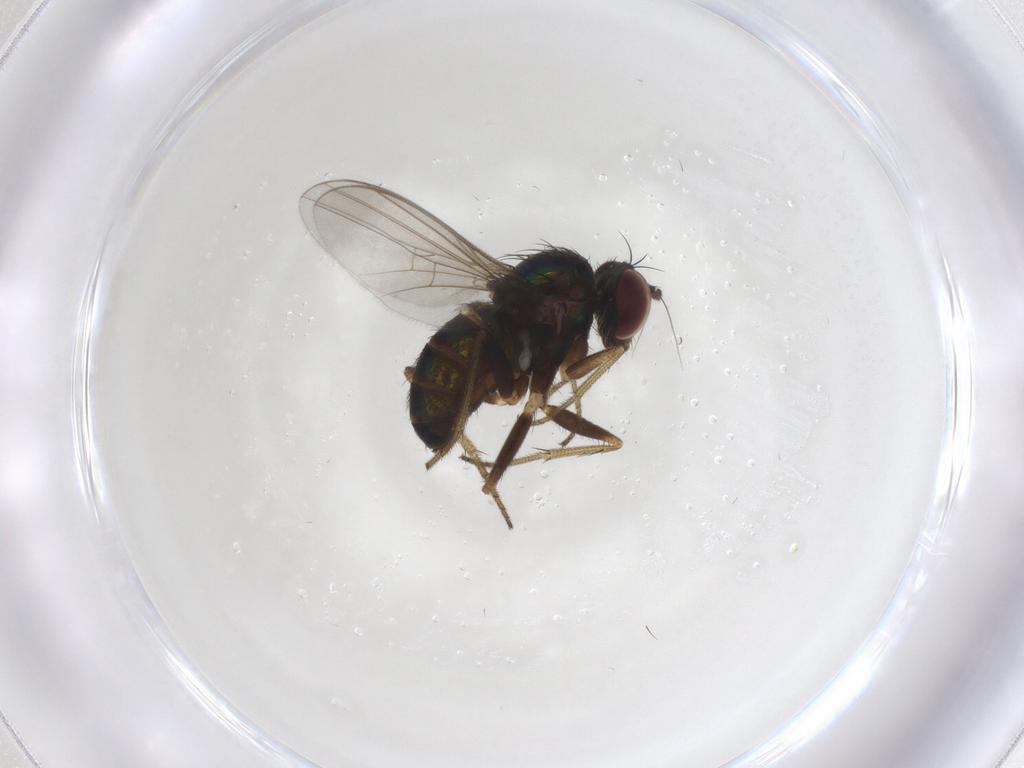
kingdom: Animalia
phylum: Arthropoda
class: Insecta
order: Diptera
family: Dolichopodidae
